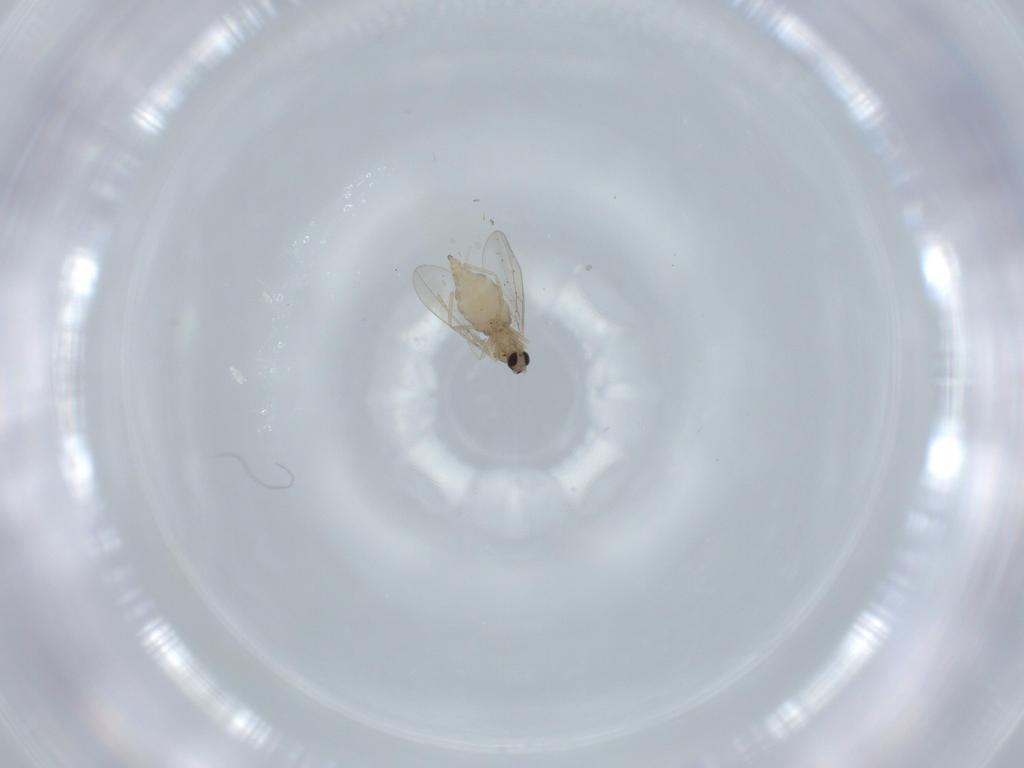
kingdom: Animalia
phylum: Arthropoda
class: Insecta
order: Diptera
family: Cecidomyiidae
